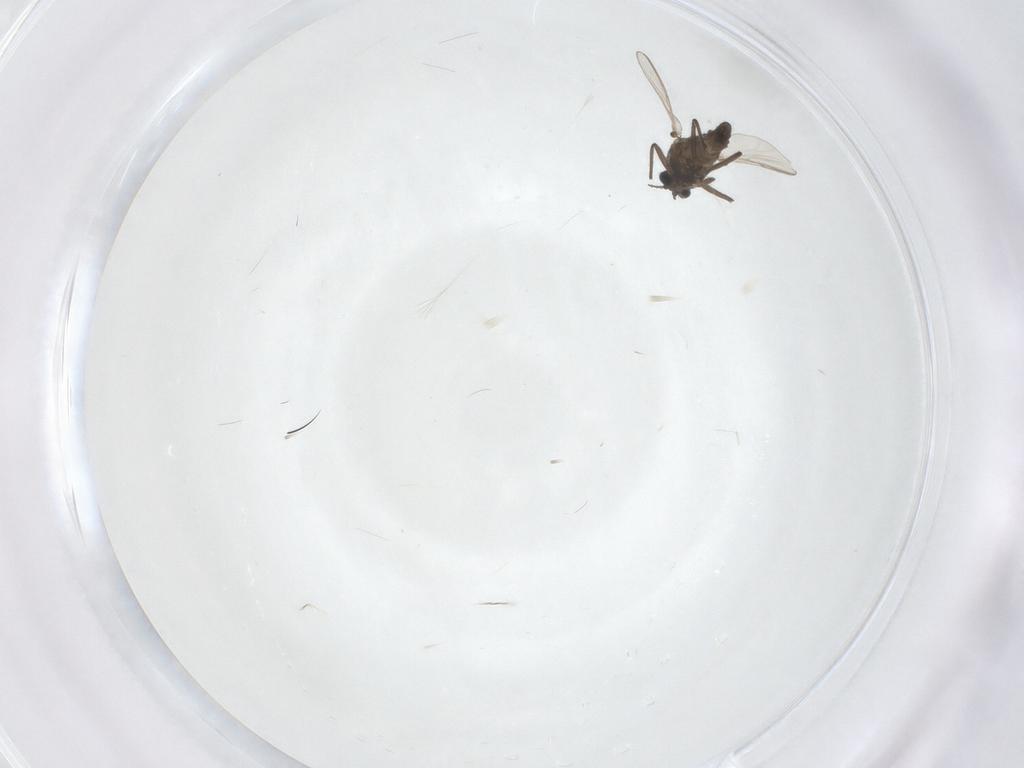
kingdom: Animalia
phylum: Arthropoda
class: Insecta
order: Diptera
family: Chironomidae
